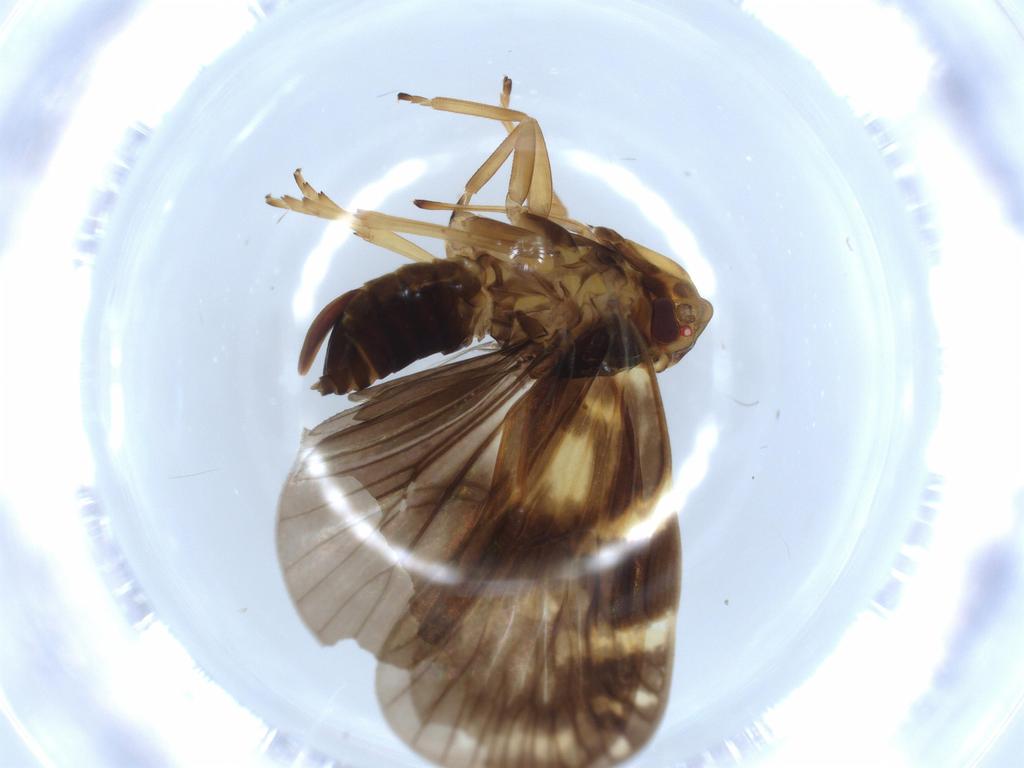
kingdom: Animalia
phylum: Arthropoda
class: Insecta
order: Hemiptera
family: Cixiidae
